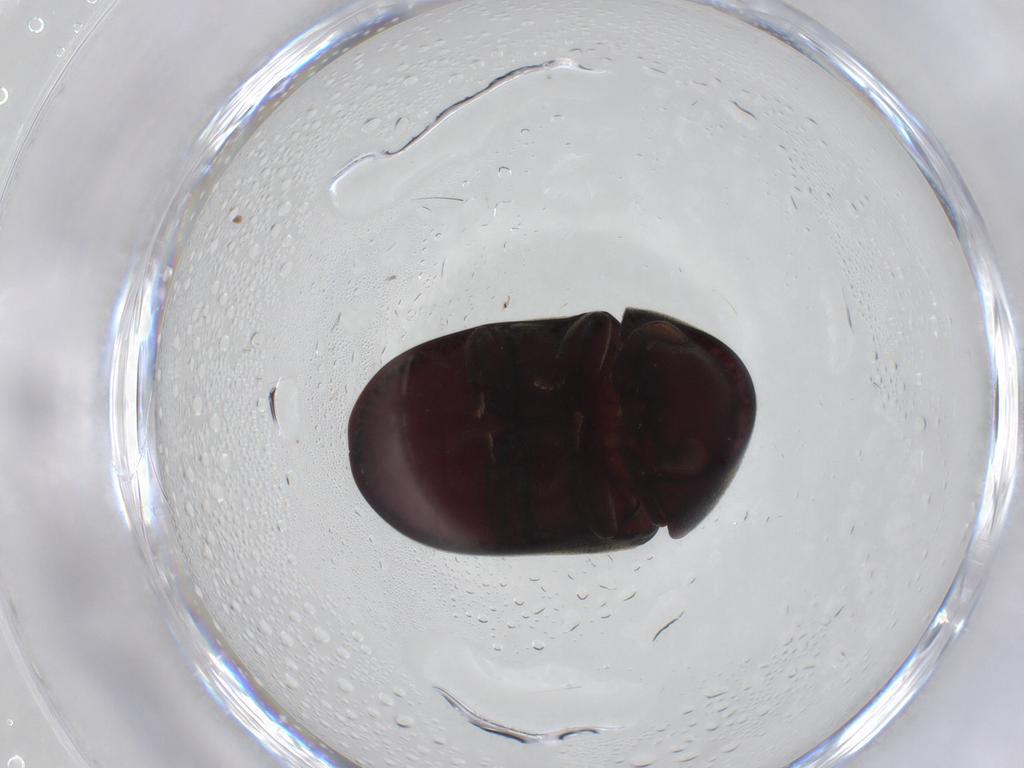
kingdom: Animalia
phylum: Arthropoda
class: Insecta
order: Coleoptera
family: Ptinidae
